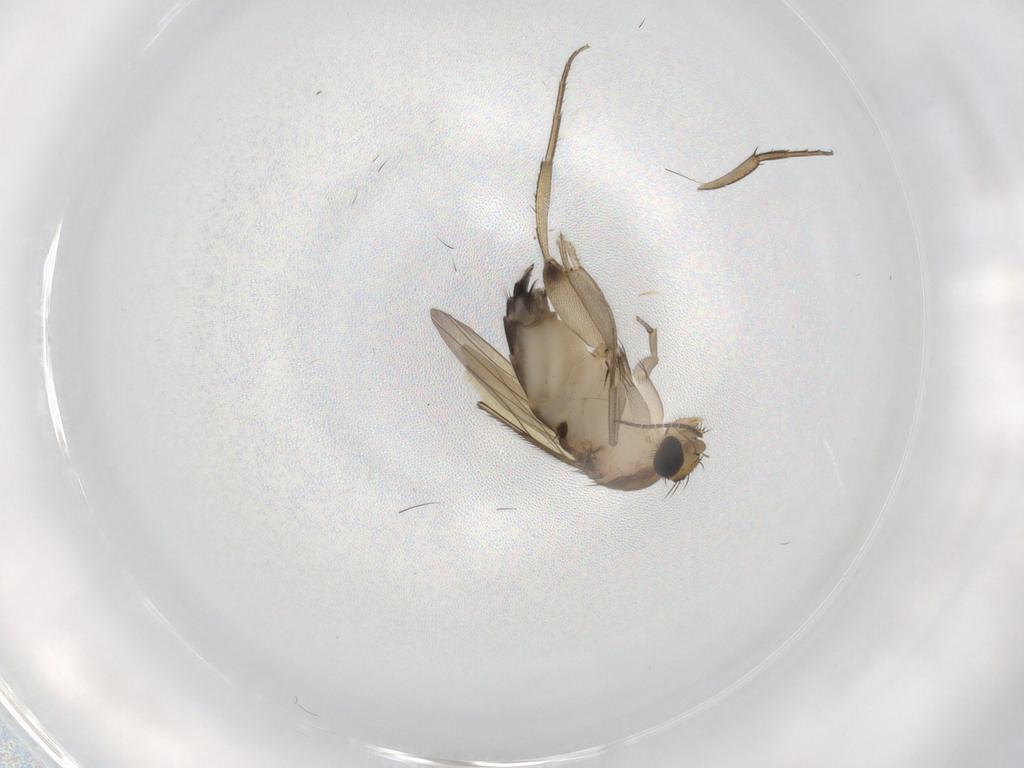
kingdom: Animalia
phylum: Arthropoda
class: Insecta
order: Diptera
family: Phoridae
